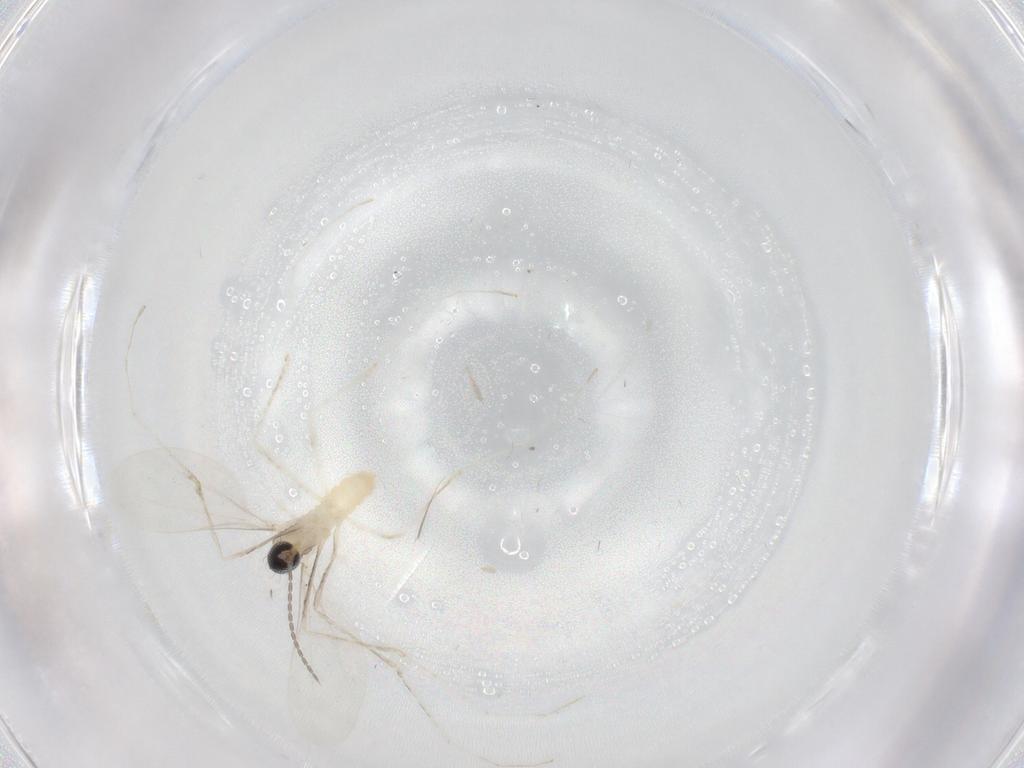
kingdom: Animalia
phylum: Arthropoda
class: Insecta
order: Diptera
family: Cecidomyiidae
